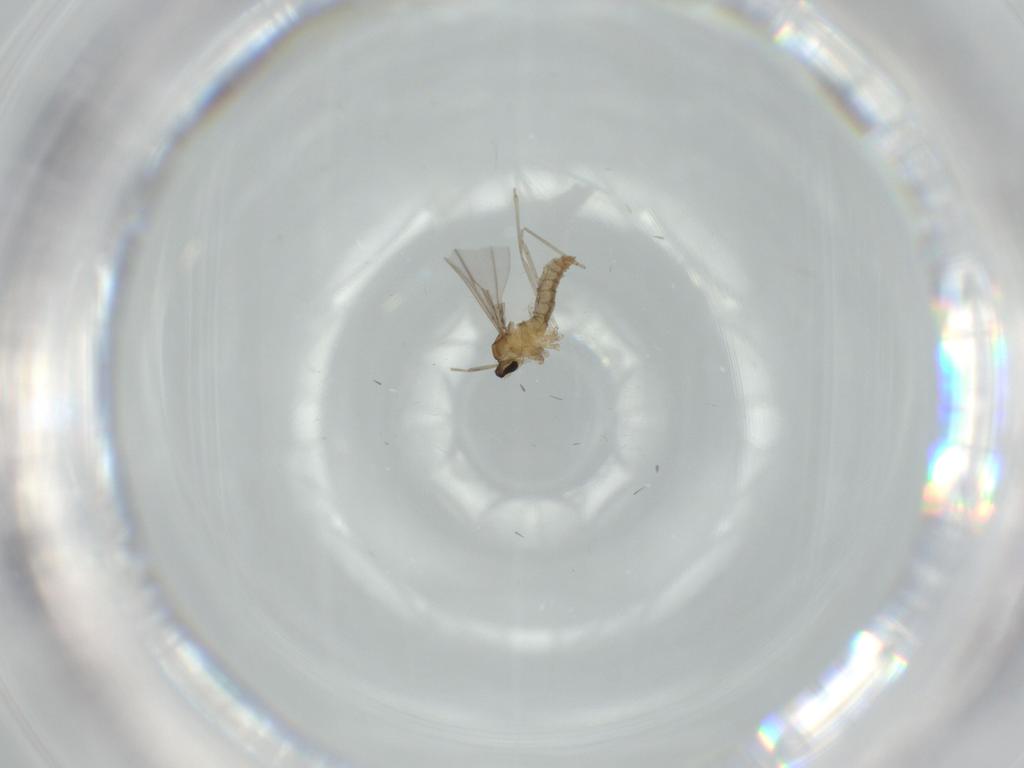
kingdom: Animalia
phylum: Arthropoda
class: Insecta
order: Diptera
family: Cecidomyiidae
